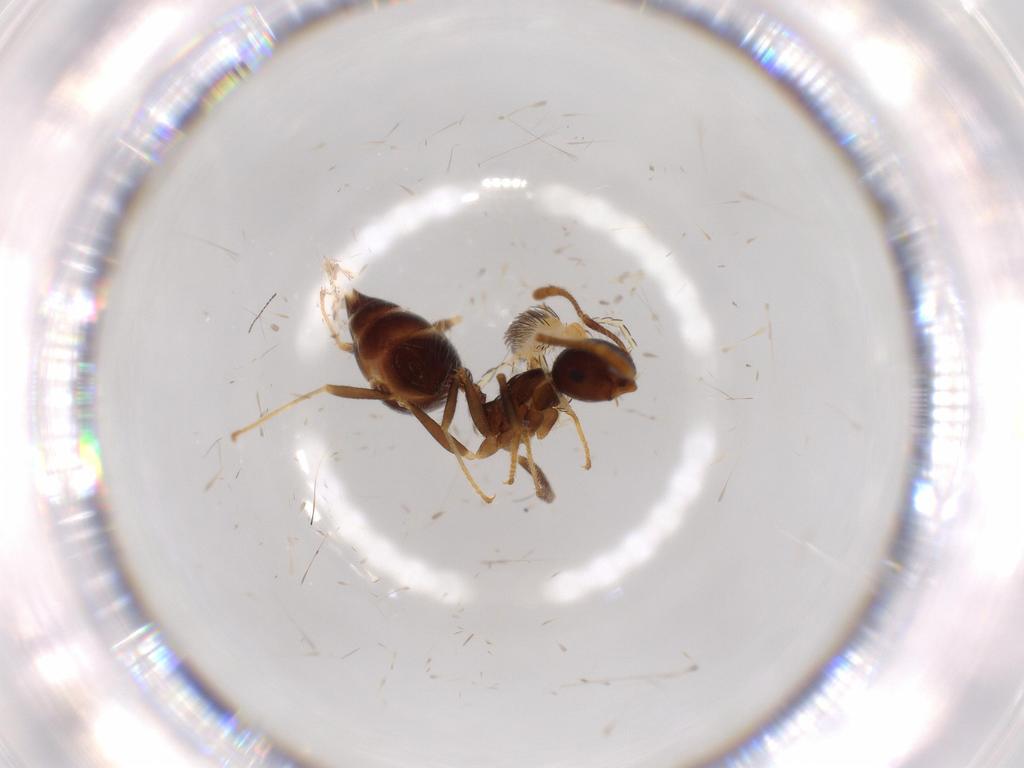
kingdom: Animalia
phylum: Arthropoda
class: Insecta
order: Hymenoptera
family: Formicidae
